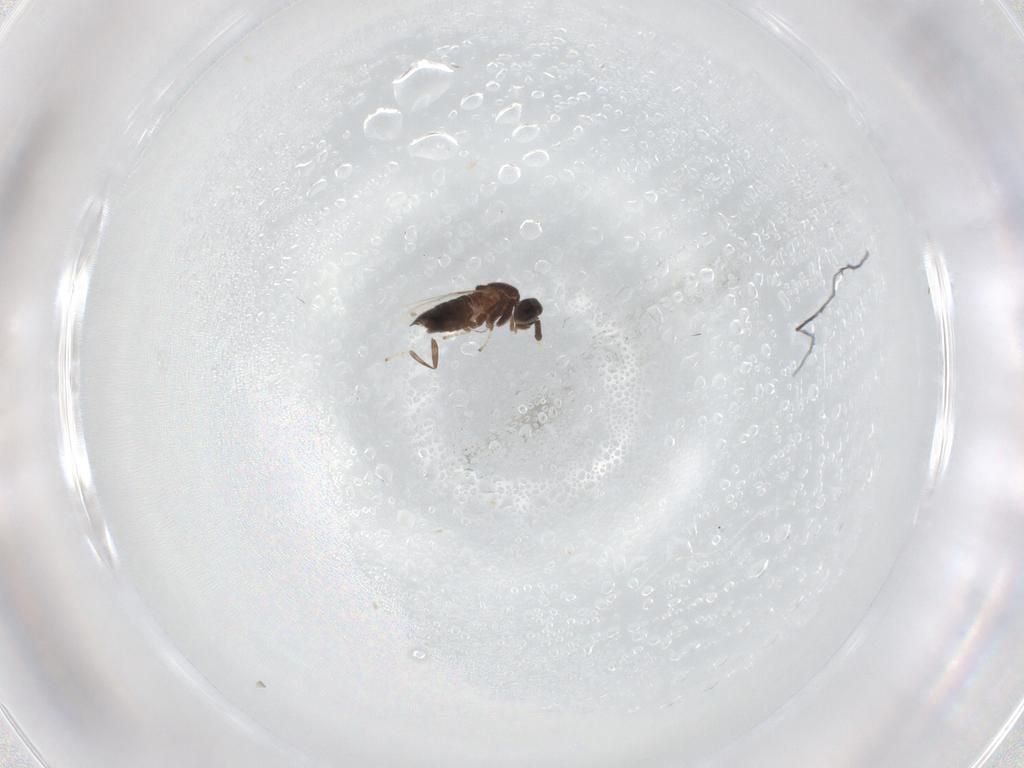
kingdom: Animalia
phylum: Arthropoda
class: Insecta
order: Diptera
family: Scatopsidae
